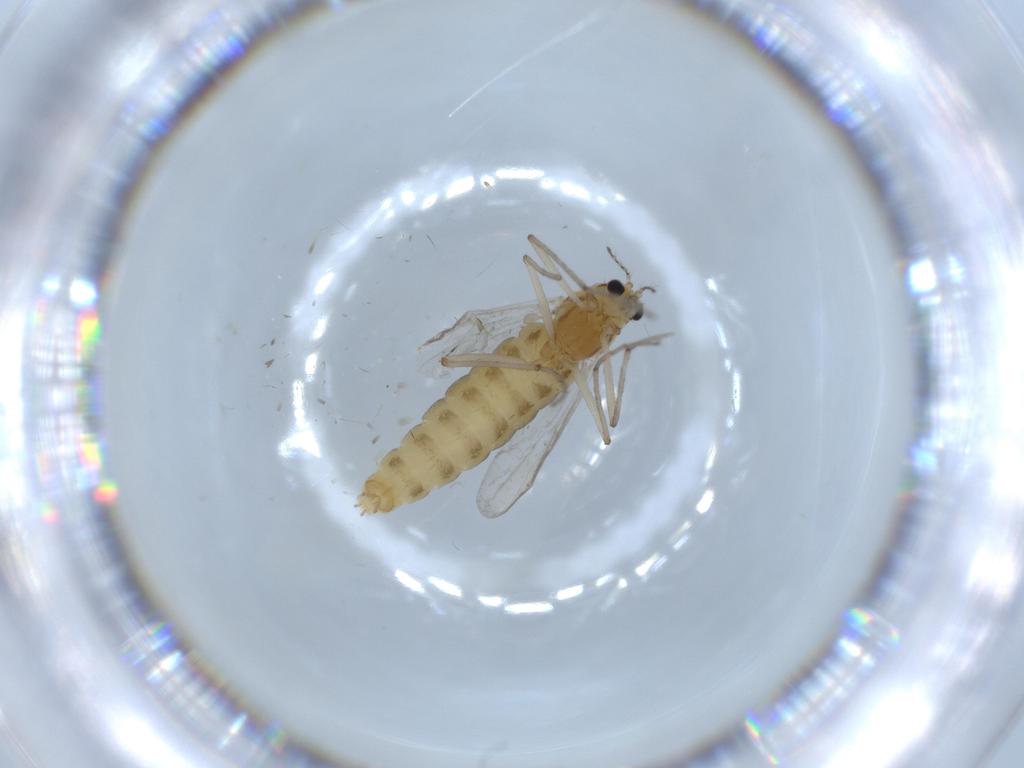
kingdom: Animalia
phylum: Arthropoda
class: Insecta
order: Diptera
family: Chironomidae
